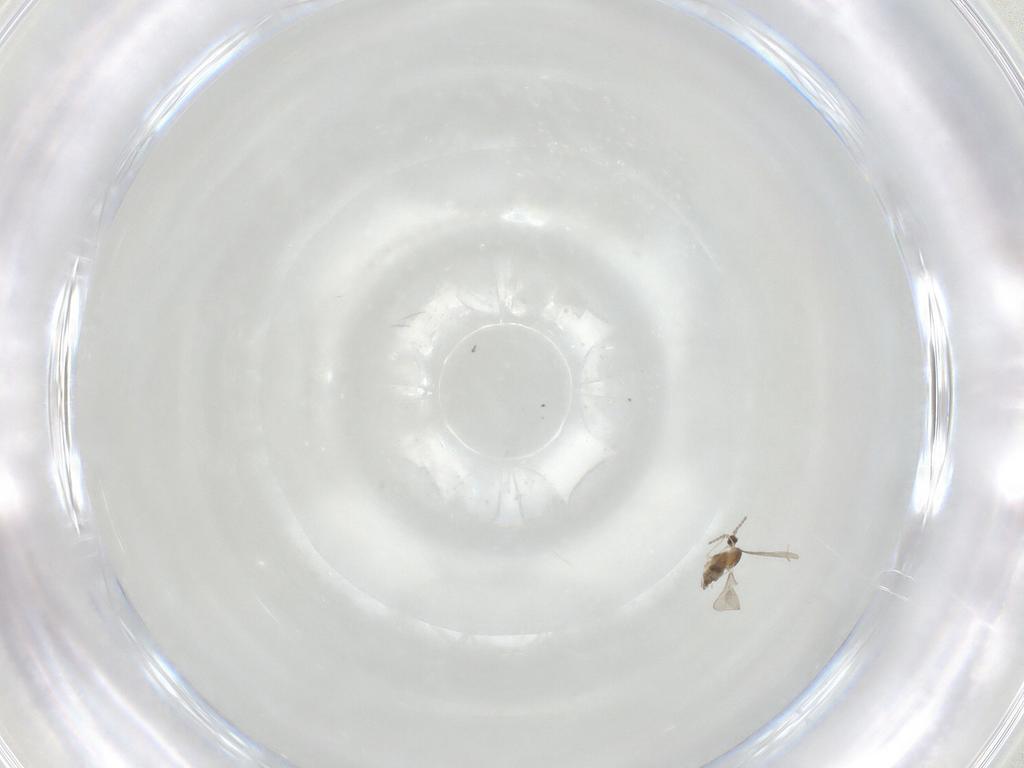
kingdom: Animalia
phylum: Arthropoda
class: Insecta
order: Diptera
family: Cecidomyiidae
